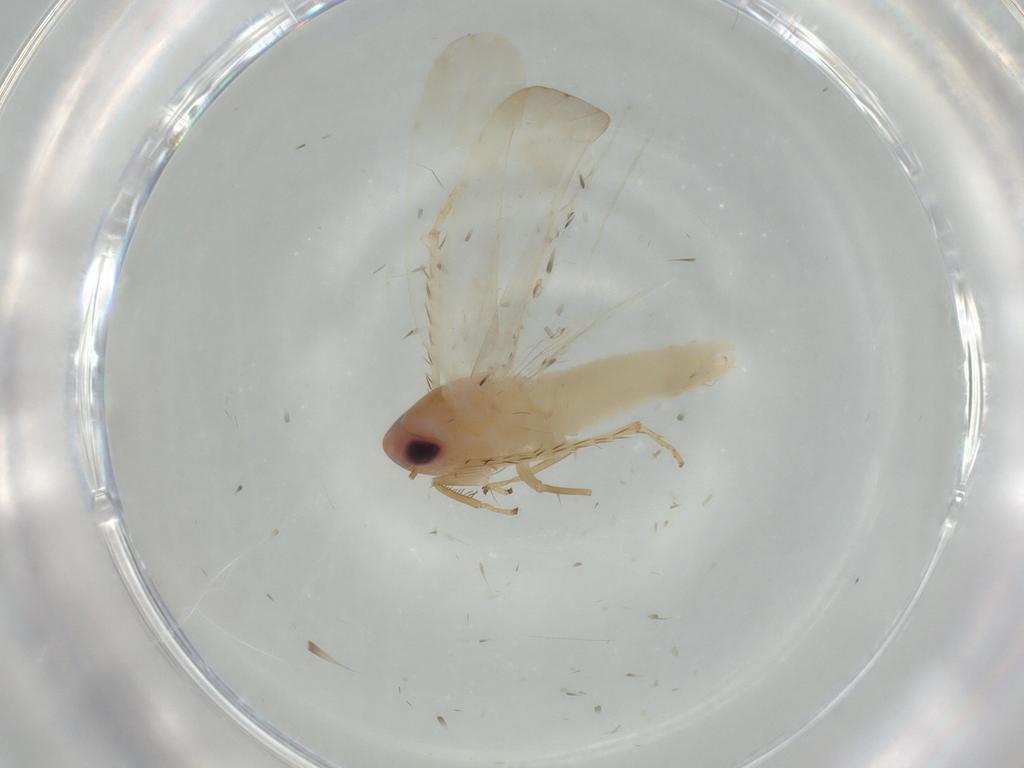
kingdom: Animalia
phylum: Arthropoda
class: Insecta
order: Hemiptera
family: Cicadellidae
